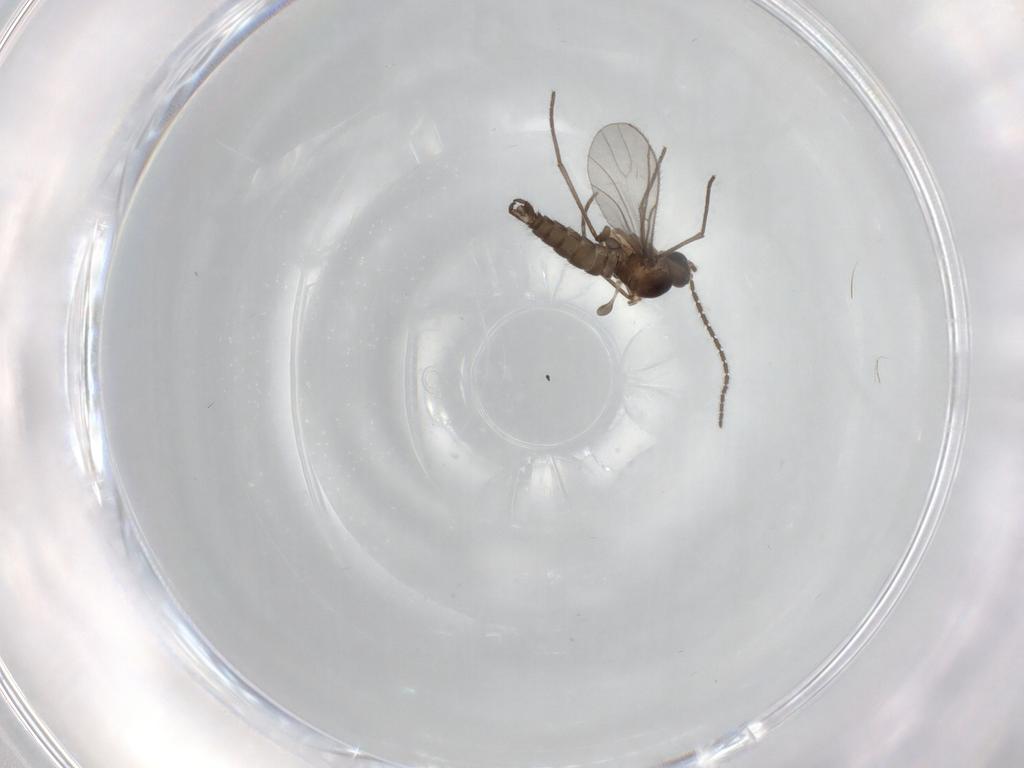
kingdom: Animalia
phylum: Arthropoda
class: Insecta
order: Diptera
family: Sciaridae
